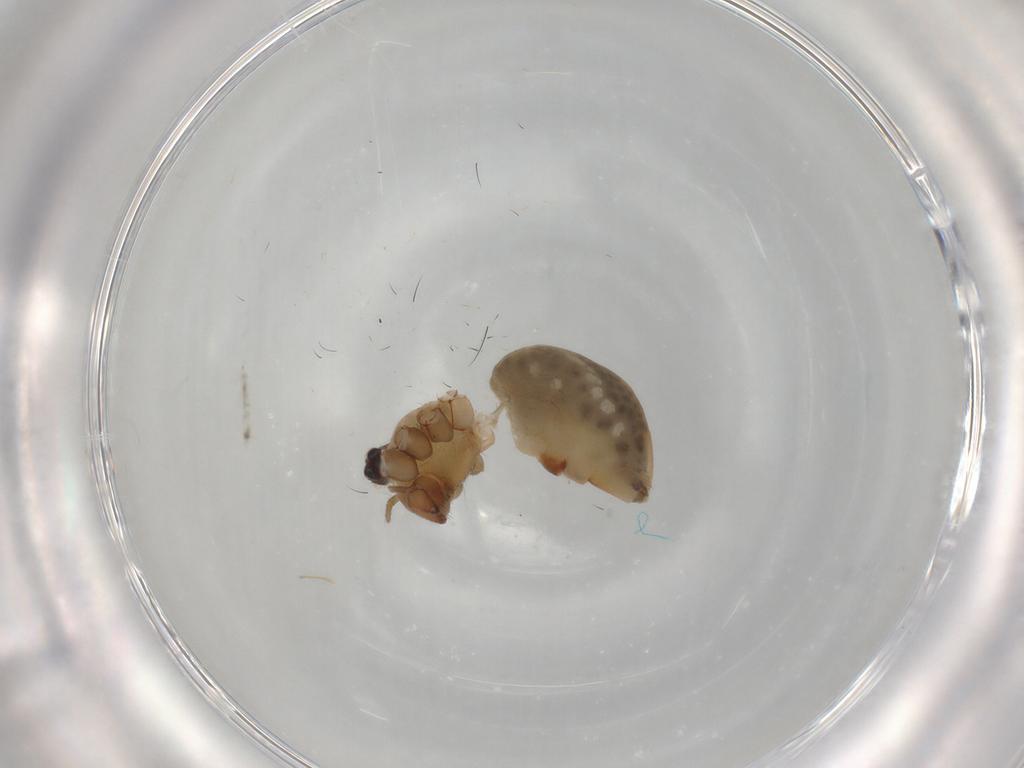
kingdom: Animalia
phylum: Arthropoda
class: Arachnida
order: Araneae
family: Pholcidae
